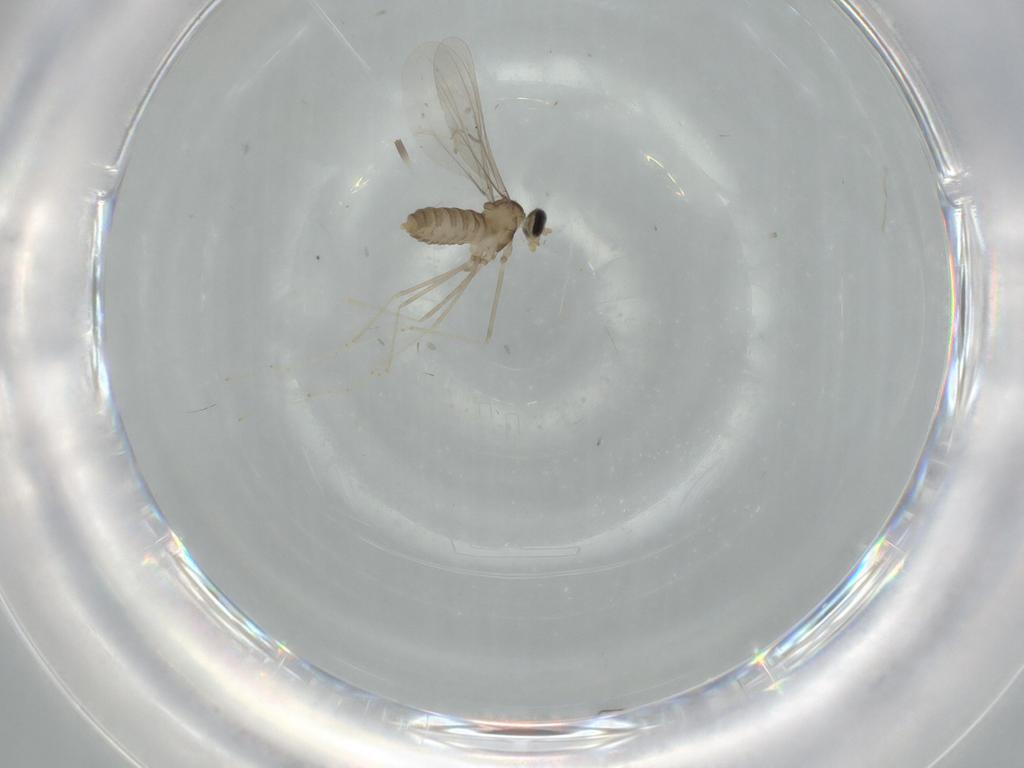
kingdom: Animalia
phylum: Arthropoda
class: Insecta
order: Diptera
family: Cecidomyiidae
